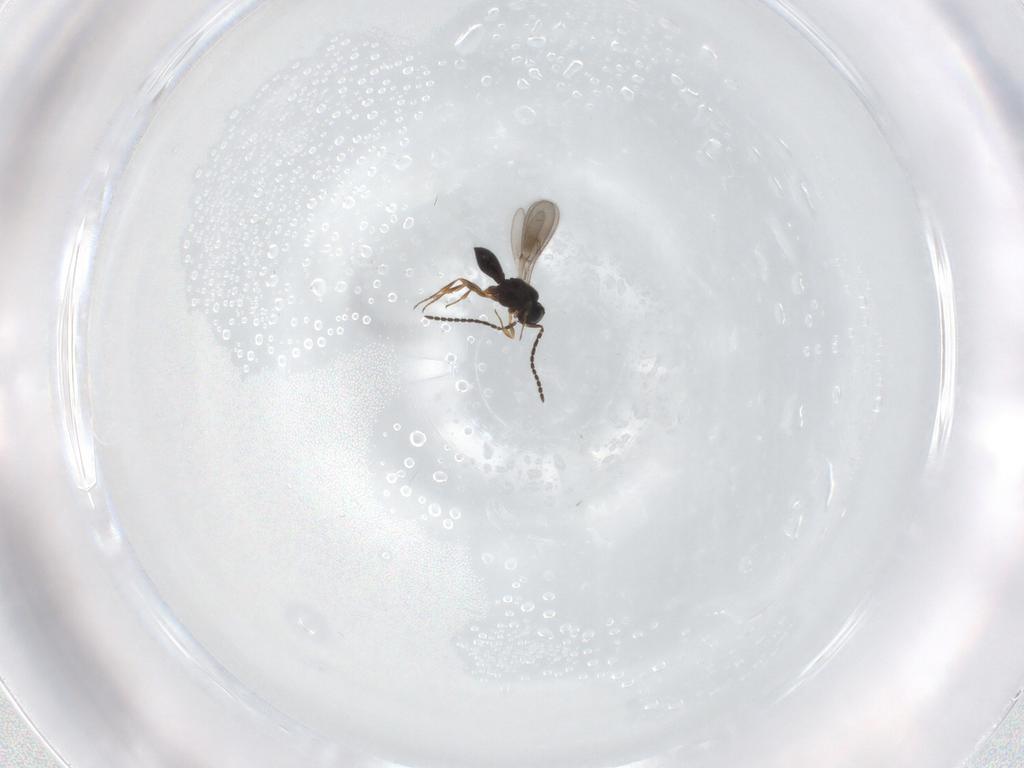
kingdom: Animalia
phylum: Arthropoda
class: Insecta
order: Hymenoptera
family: Scelionidae
